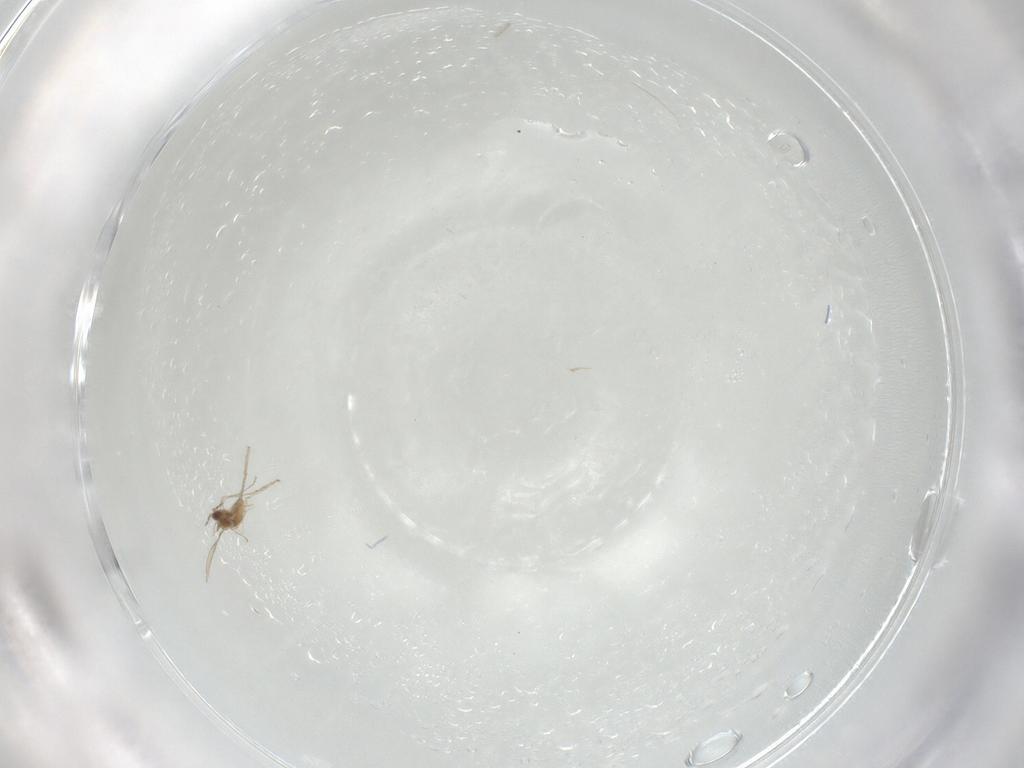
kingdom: Animalia
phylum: Arthropoda
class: Insecta
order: Diptera
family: Cecidomyiidae
